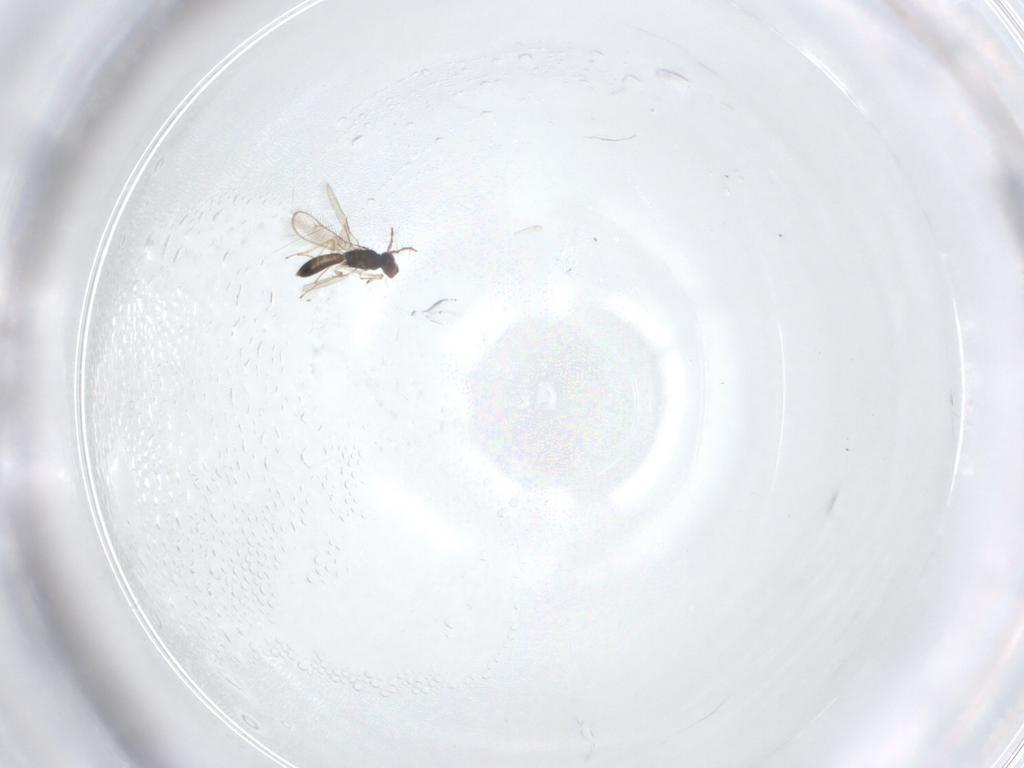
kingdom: Animalia
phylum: Arthropoda
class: Insecta
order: Hymenoptera
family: Pteromalidae
